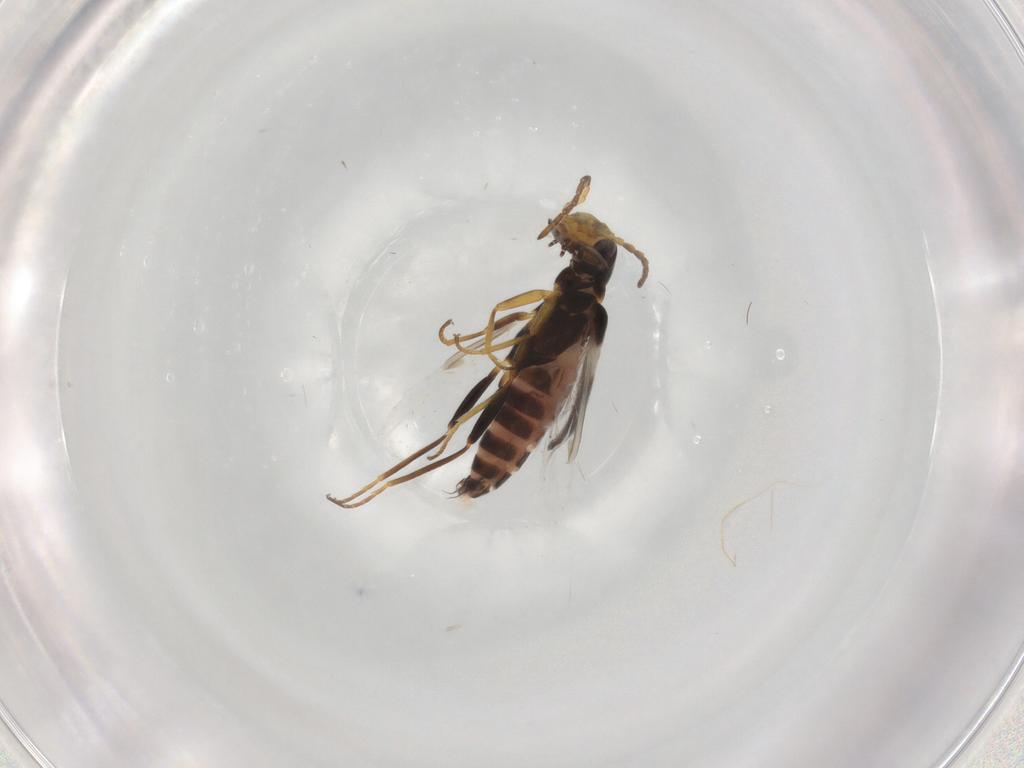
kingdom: Animalia
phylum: Arthropoda
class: Insecta
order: Coleoptera
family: Melyridae
